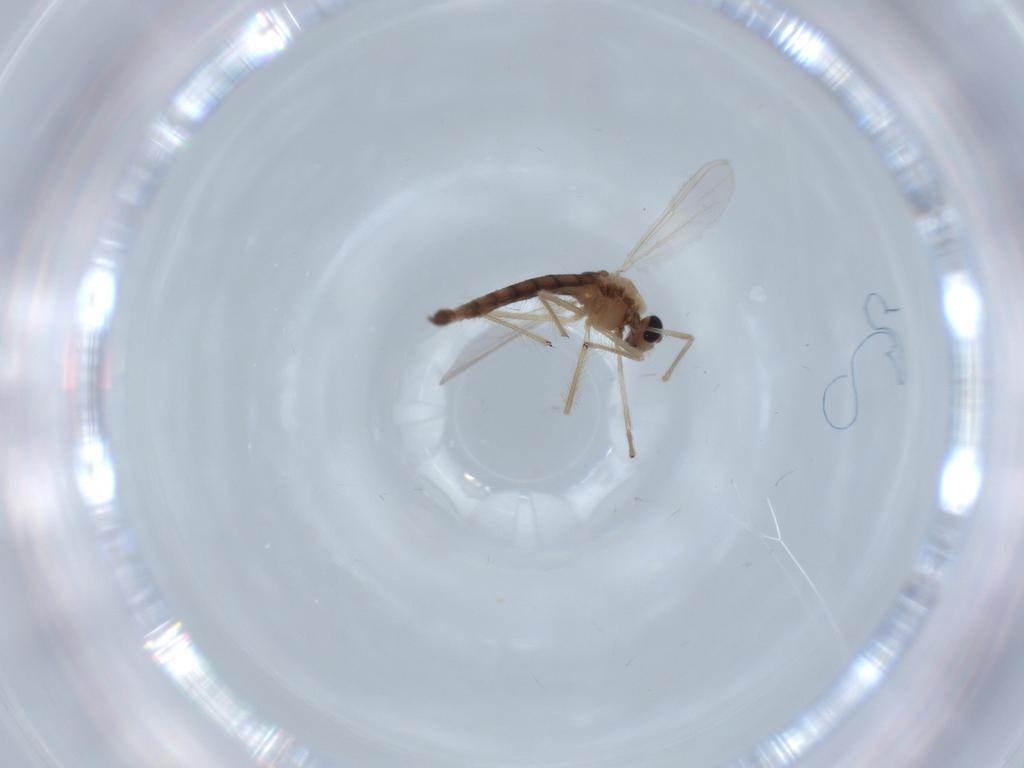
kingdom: Animalia
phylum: Arthropoda
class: Insecta
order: Diptera
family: Chironomidae
